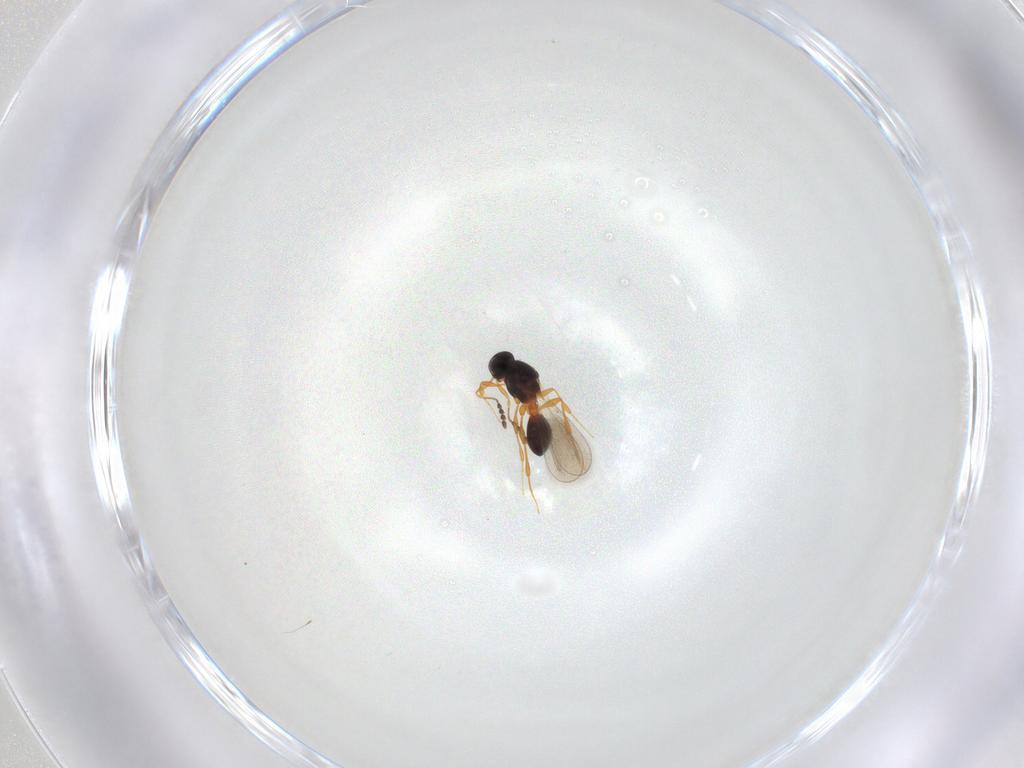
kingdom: Animalia
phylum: Arthropoda
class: Insecta
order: Hymenoptera
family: Platygastridae
